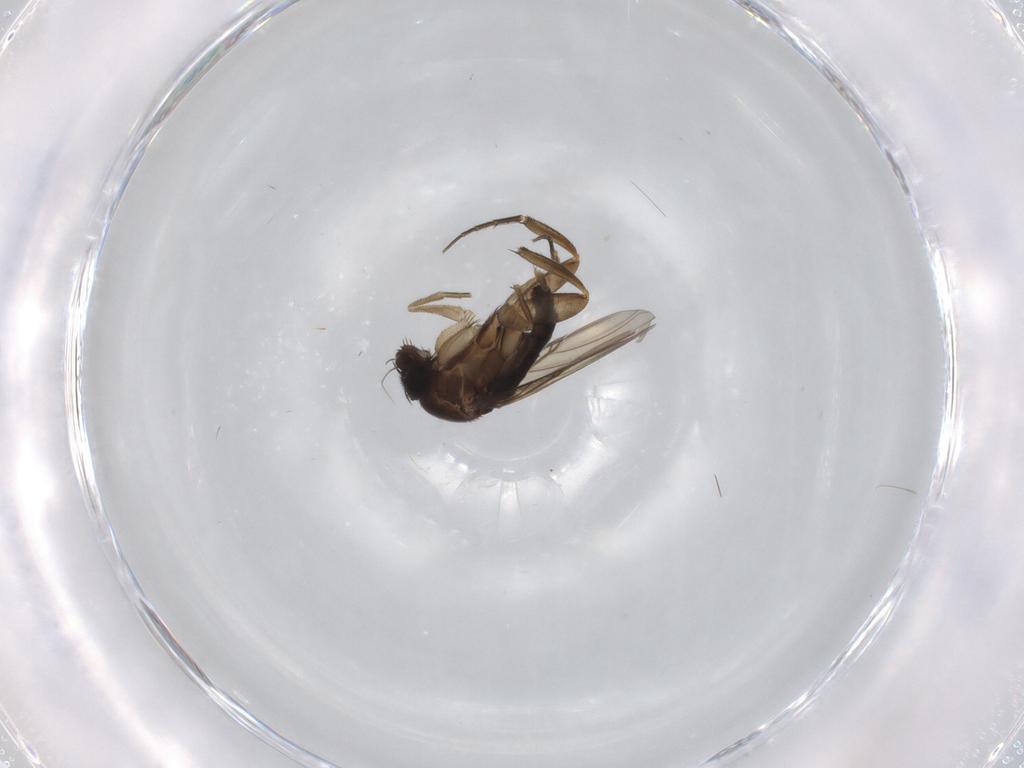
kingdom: Animalia
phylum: Arthropoda
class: Insecta
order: Diptera
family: Phoridae
